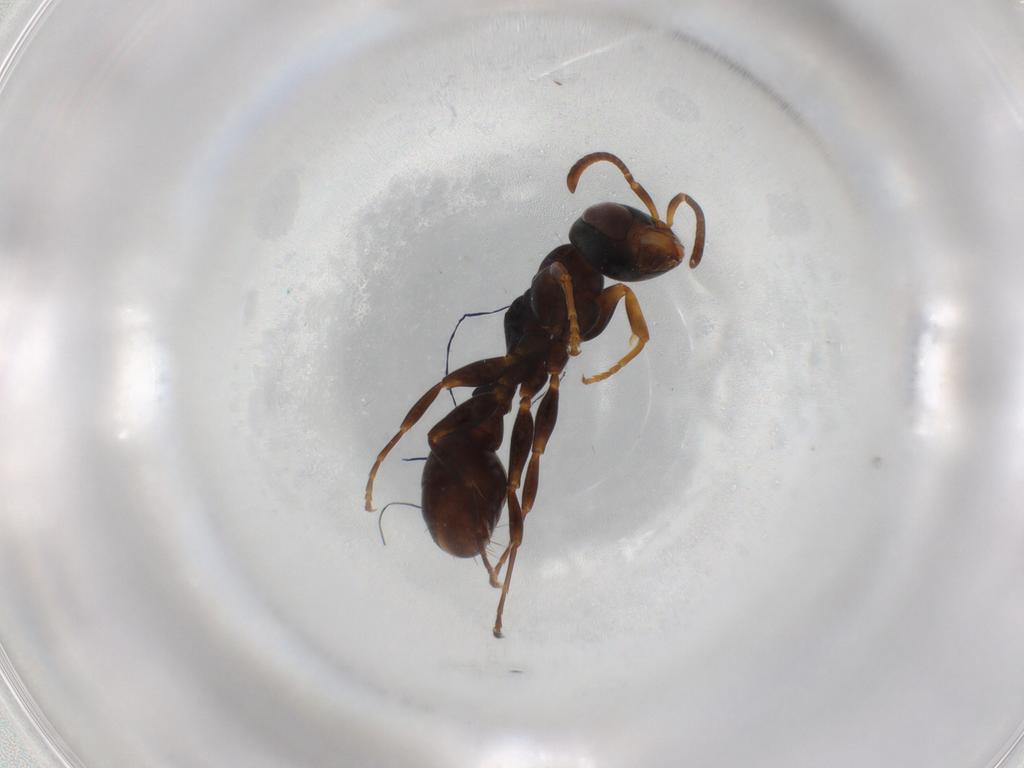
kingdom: Animalia
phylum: Arthropoda
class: Insecta
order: Hymenoptera
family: Formicidae
